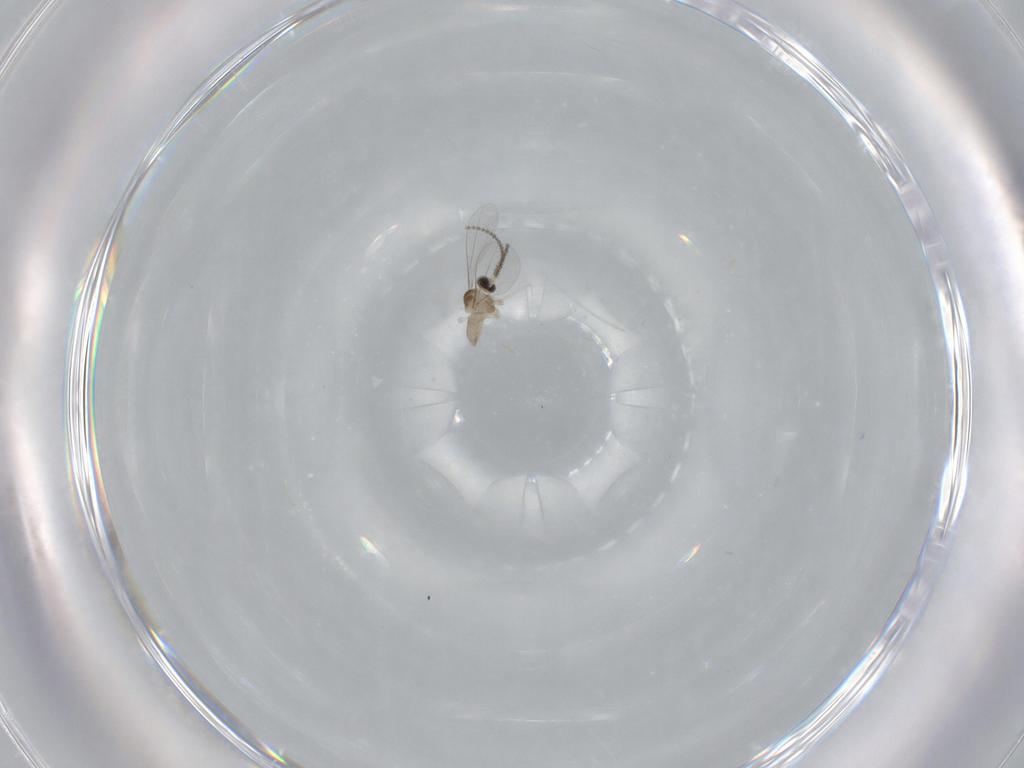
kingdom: Animalia
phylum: Arthropoda
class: Insecta
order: Diptera
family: Cecidomyiidae
